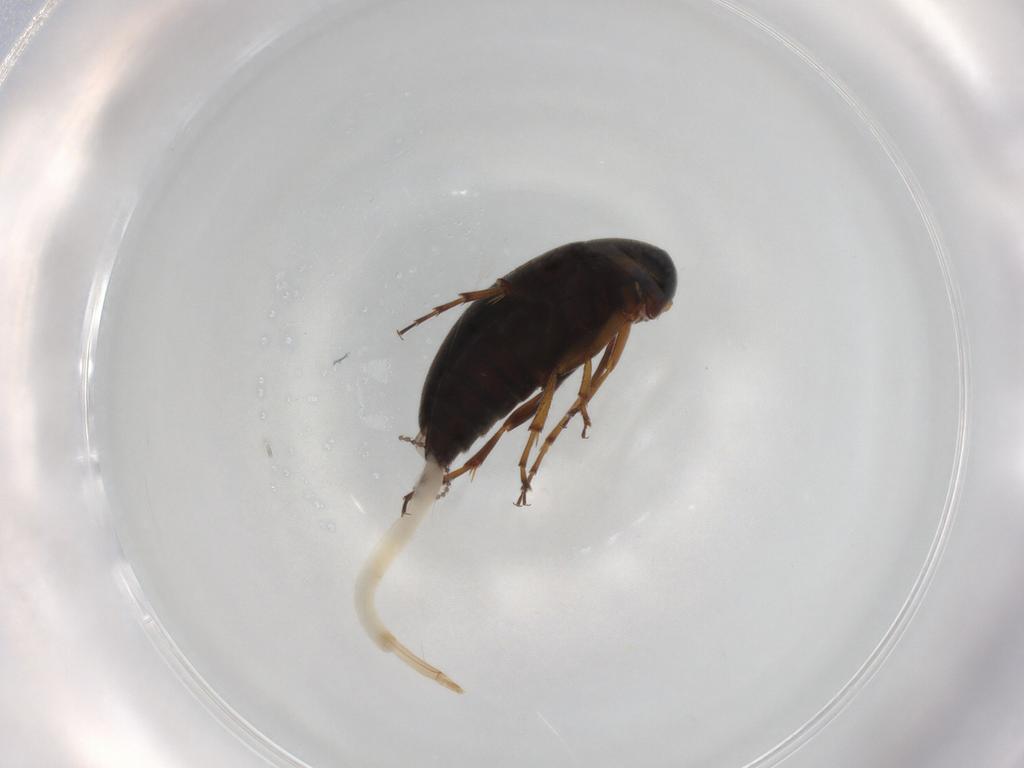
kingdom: Animalia
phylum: Arthropoda
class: Insecta
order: Coleoptera
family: Scraptiidae
